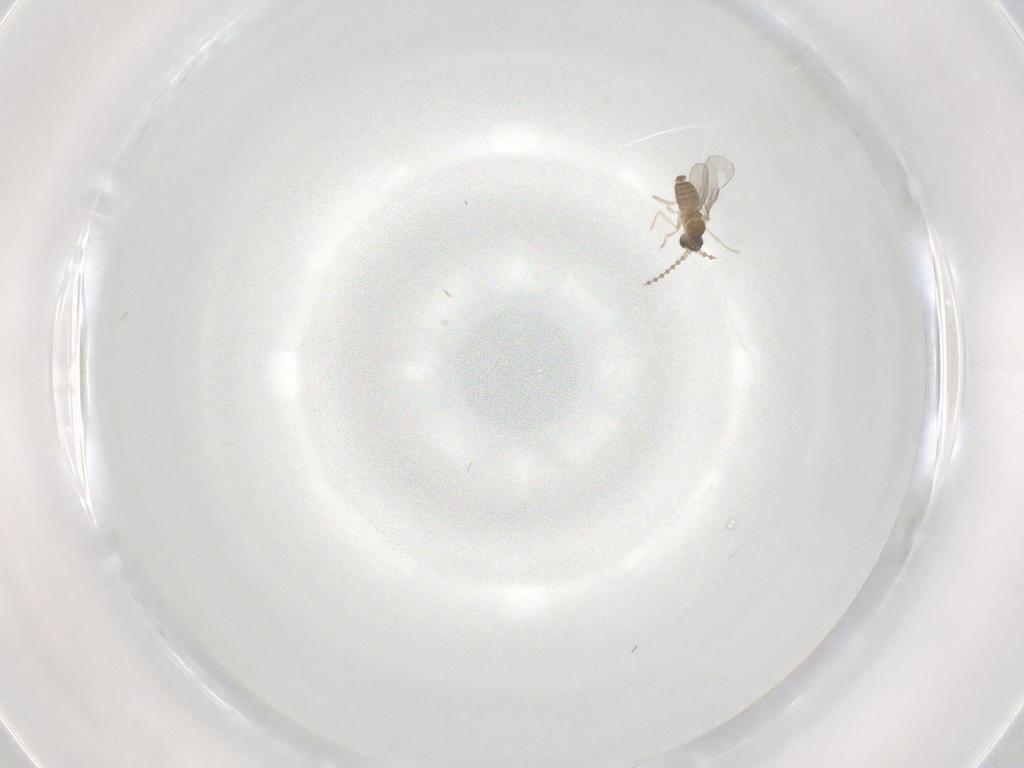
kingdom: Animalia
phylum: Arthropoda
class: Insecta
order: Diptera
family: Cecidomyiidae
